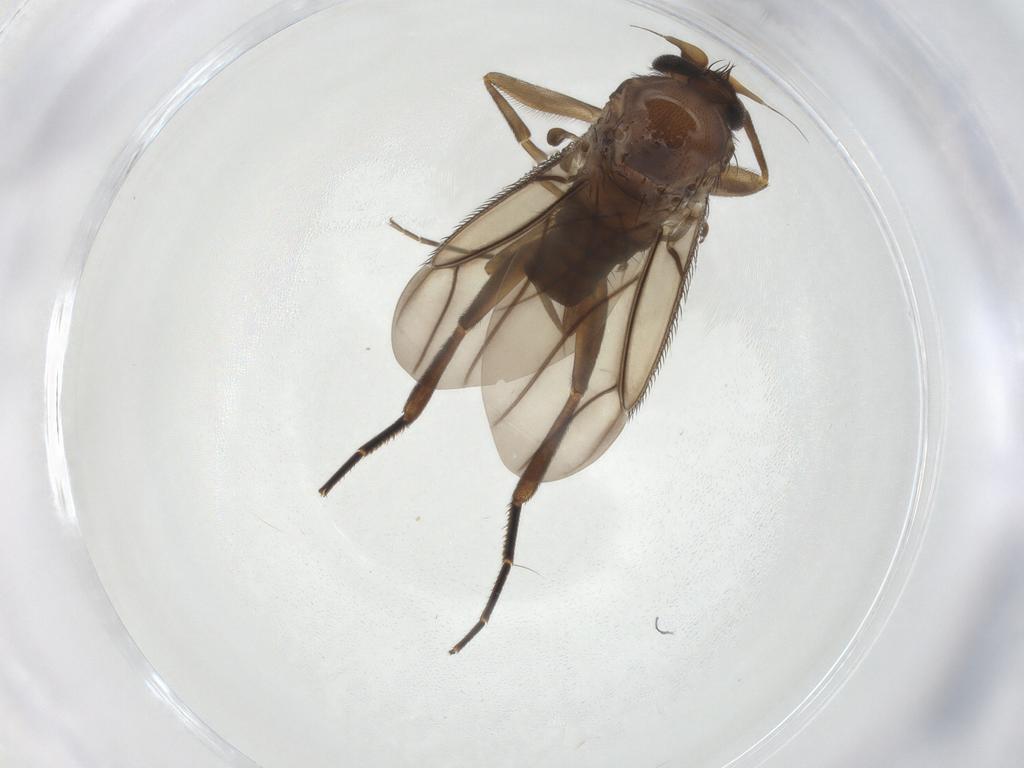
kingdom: Animalia
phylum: Arthropoda
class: Insecta
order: Diptera
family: Phoridae
